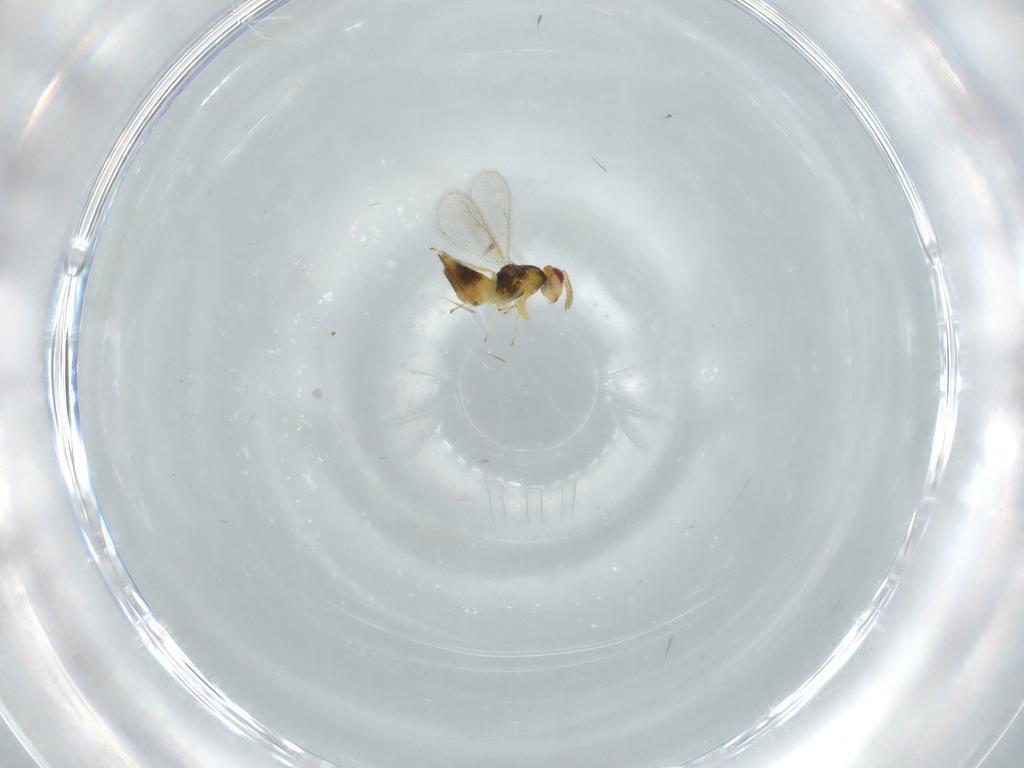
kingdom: Animalia
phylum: Arthropoda
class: Insecta
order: Hymenoptera
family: Eulophidae
